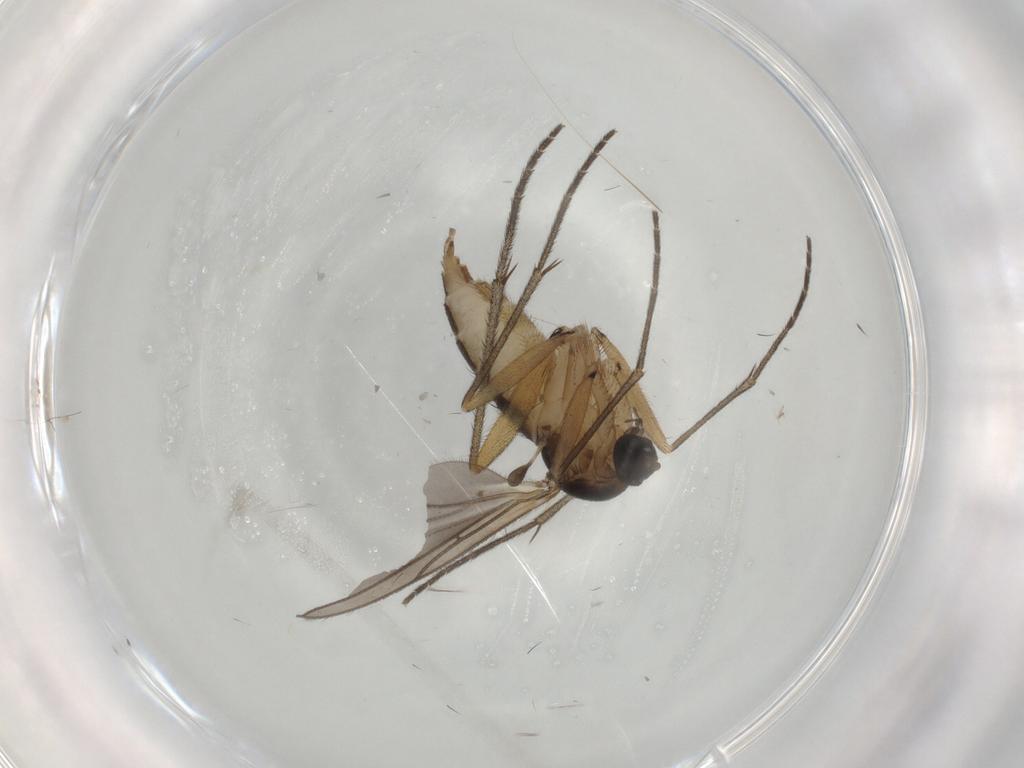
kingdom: Animalia
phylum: Arthropoda
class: Insecta
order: Diptera
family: Sciaridae
